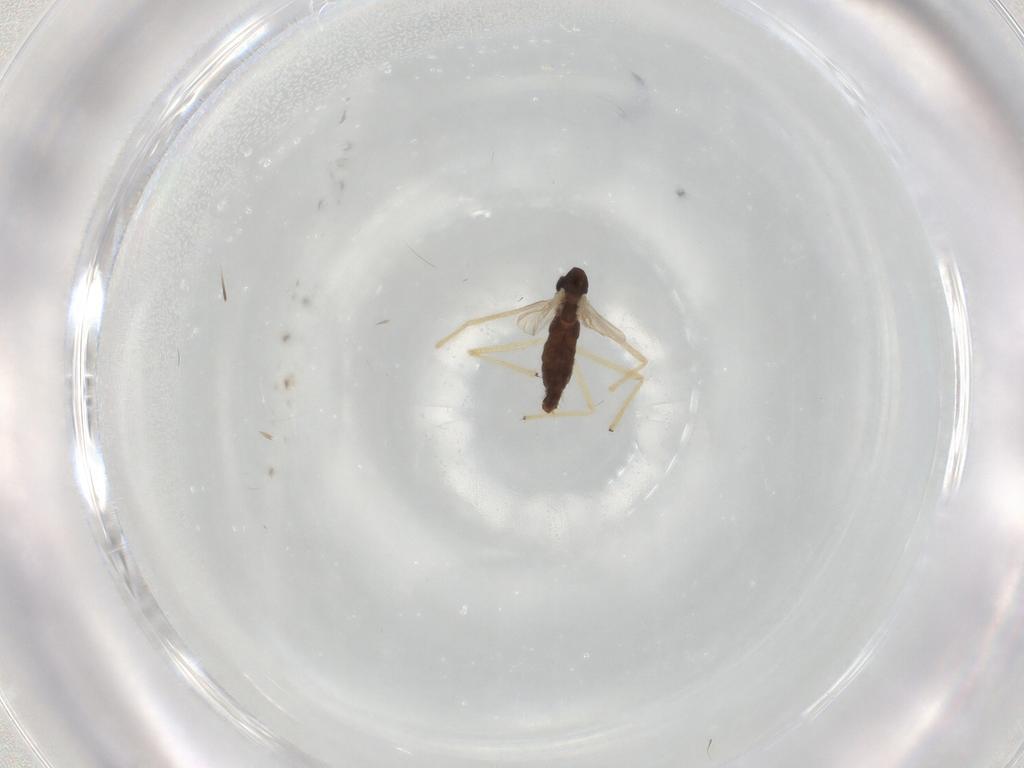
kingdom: Animalia
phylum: Arthropoda
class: Insecta
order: Diptera
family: Chironomidae
